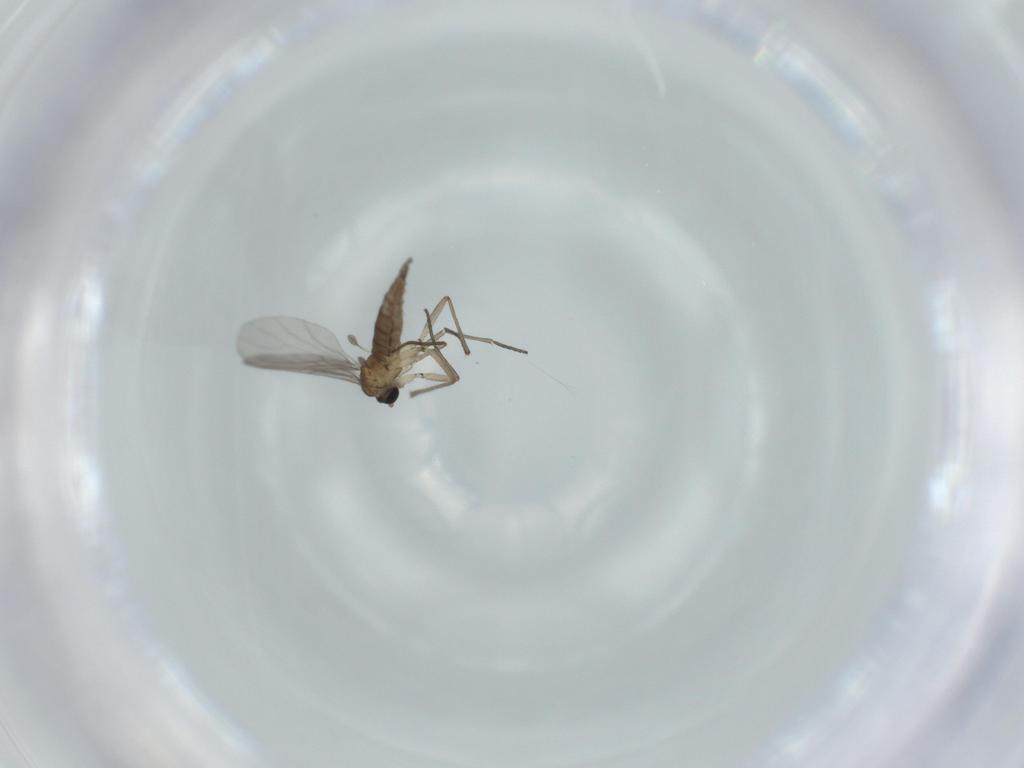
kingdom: Animalia
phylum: Arthropoda
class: Insecta
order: Diptera
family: Sciaridae
